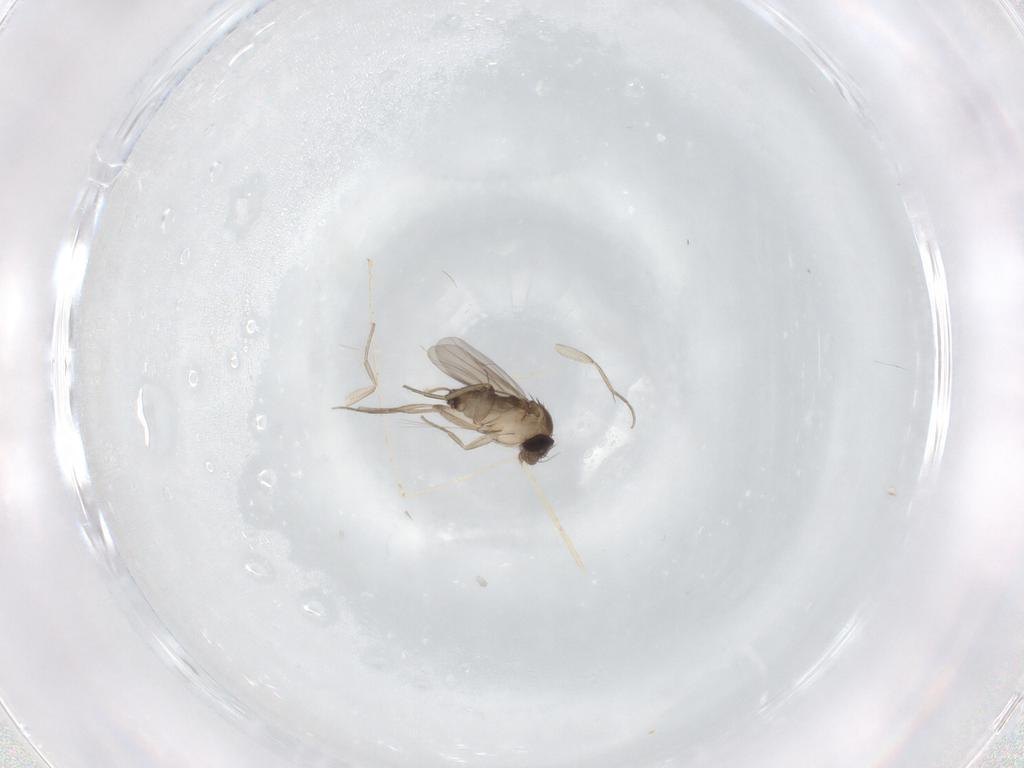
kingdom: Animalia
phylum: Arthropoda
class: Insecta
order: Diptera
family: Phoridae
